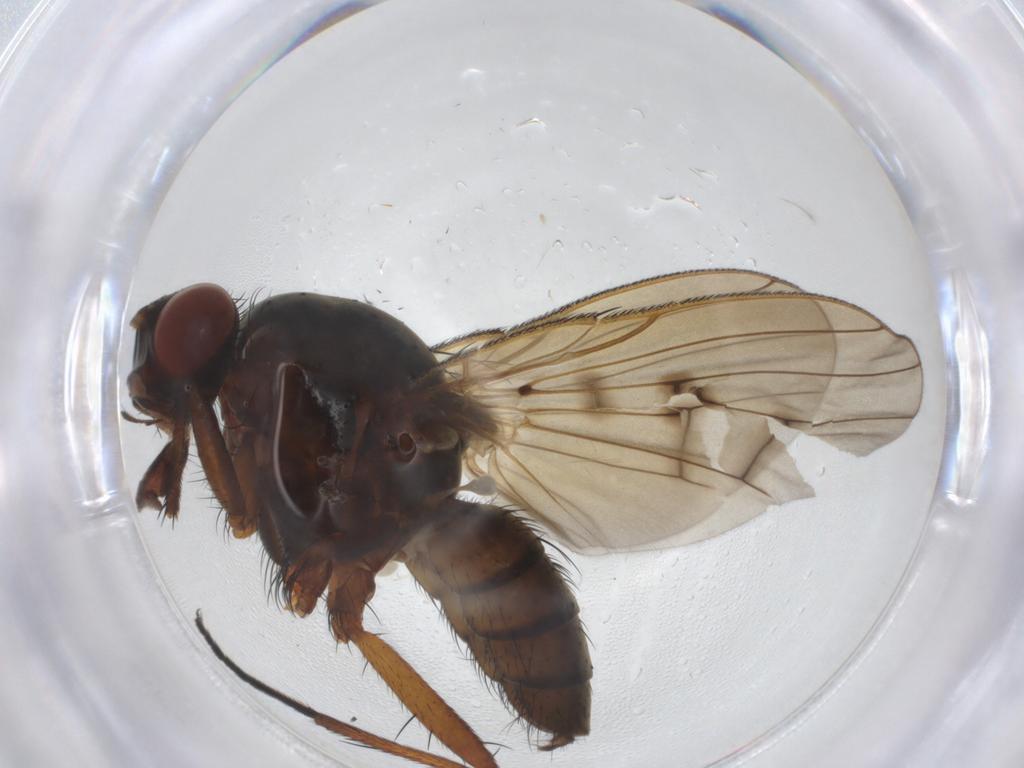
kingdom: Animalia
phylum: Arthropoda
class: Insecta
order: Diptera
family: Anthomyiidae
